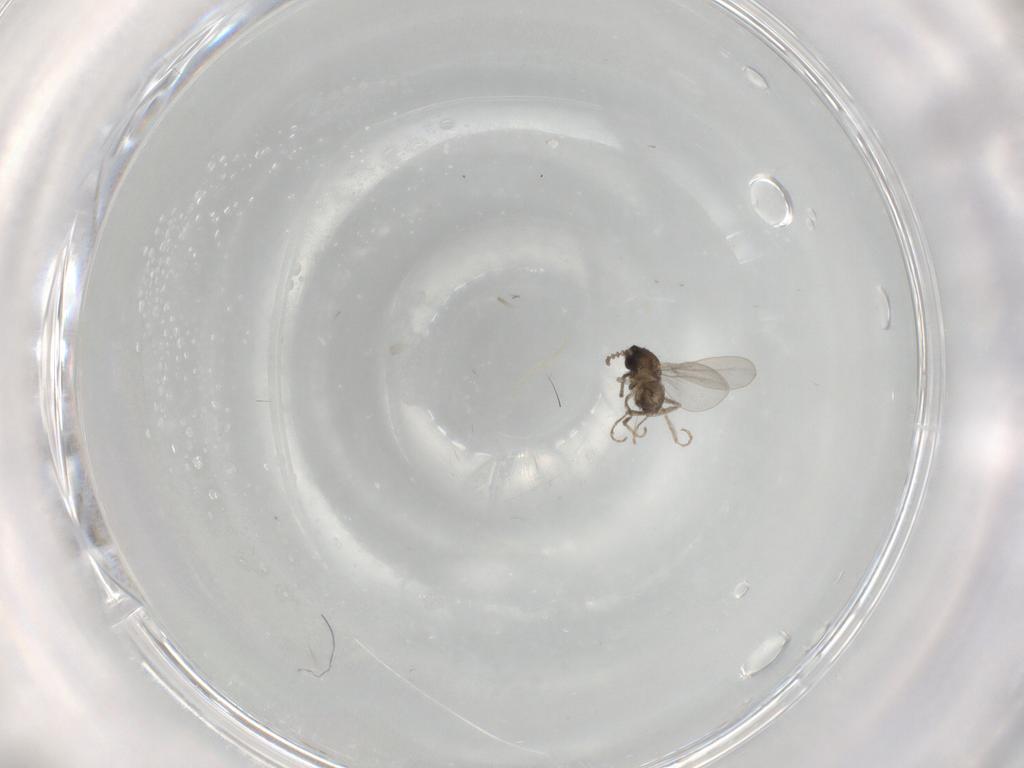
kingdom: Animalia
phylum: Arthropoda
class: Insecta
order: Diptera
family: Cecidomyiidae
